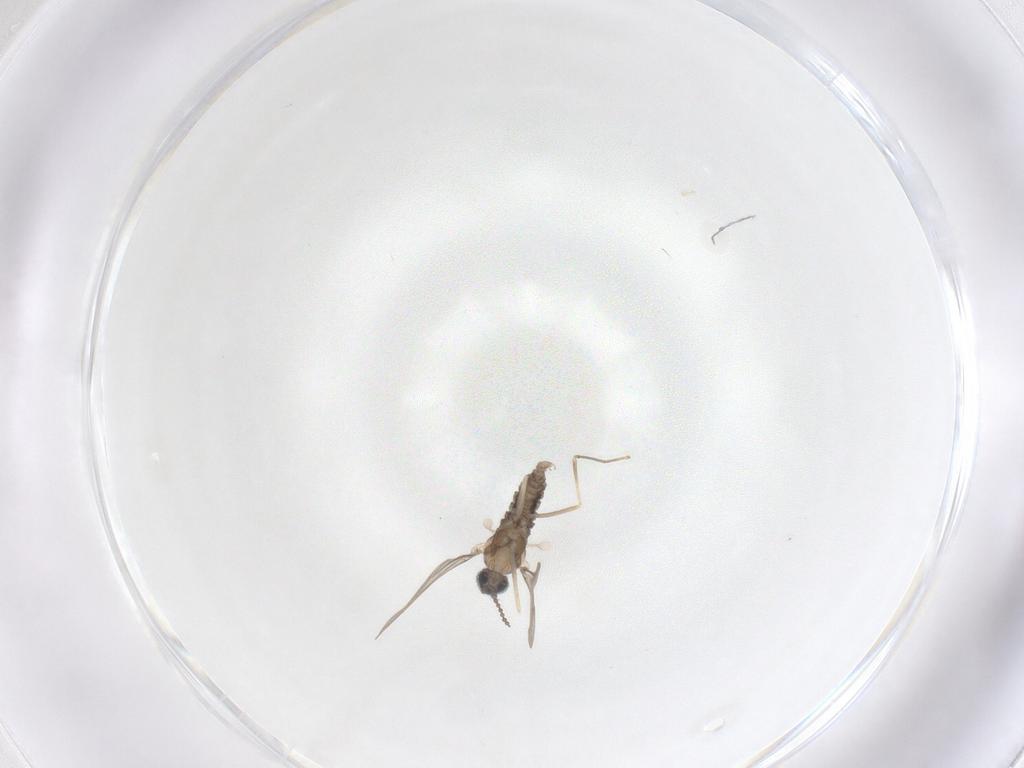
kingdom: Animalia
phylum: Arthropoda
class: Insecta
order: Diptera
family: Cecidomyiidae
